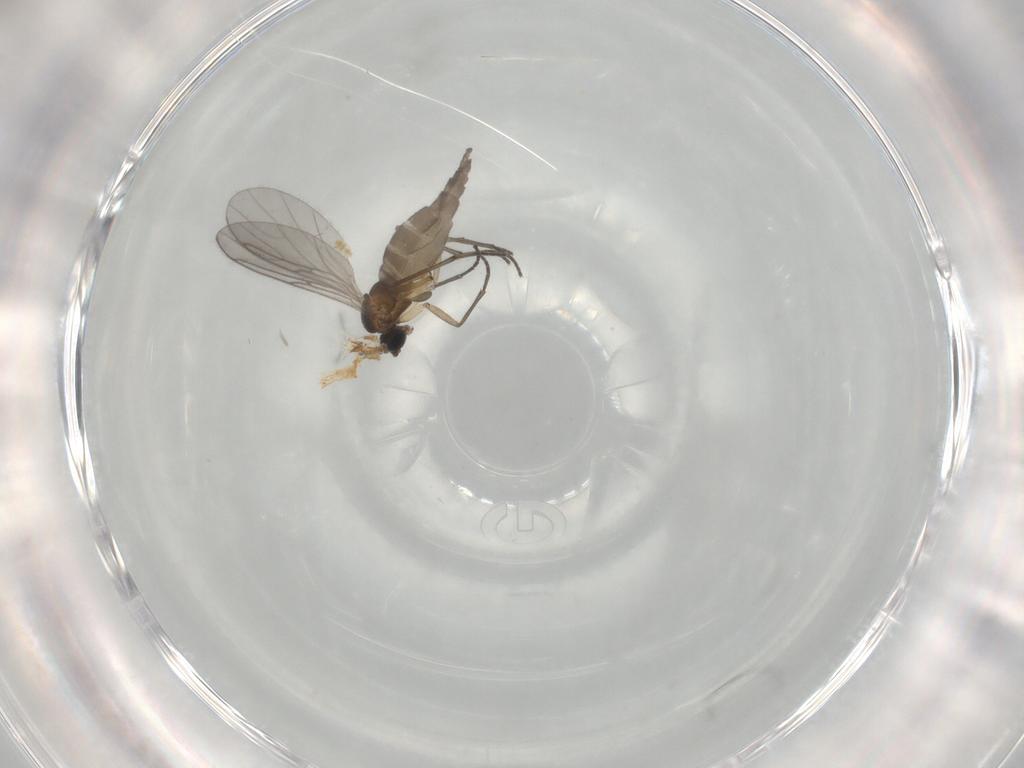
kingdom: Animalia
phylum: Arthropoda
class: Insecta
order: Diptera
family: Sciaridae
